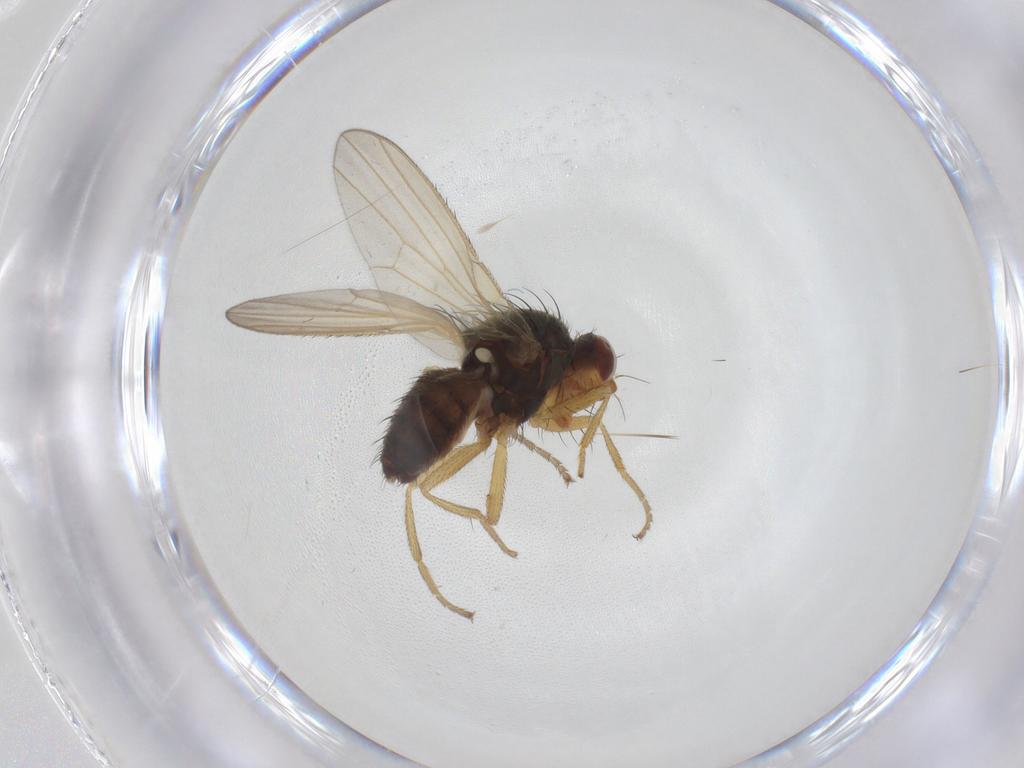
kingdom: Animalia
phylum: Arthropoda
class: Insecta
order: Diptera
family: Heleomyzidae
